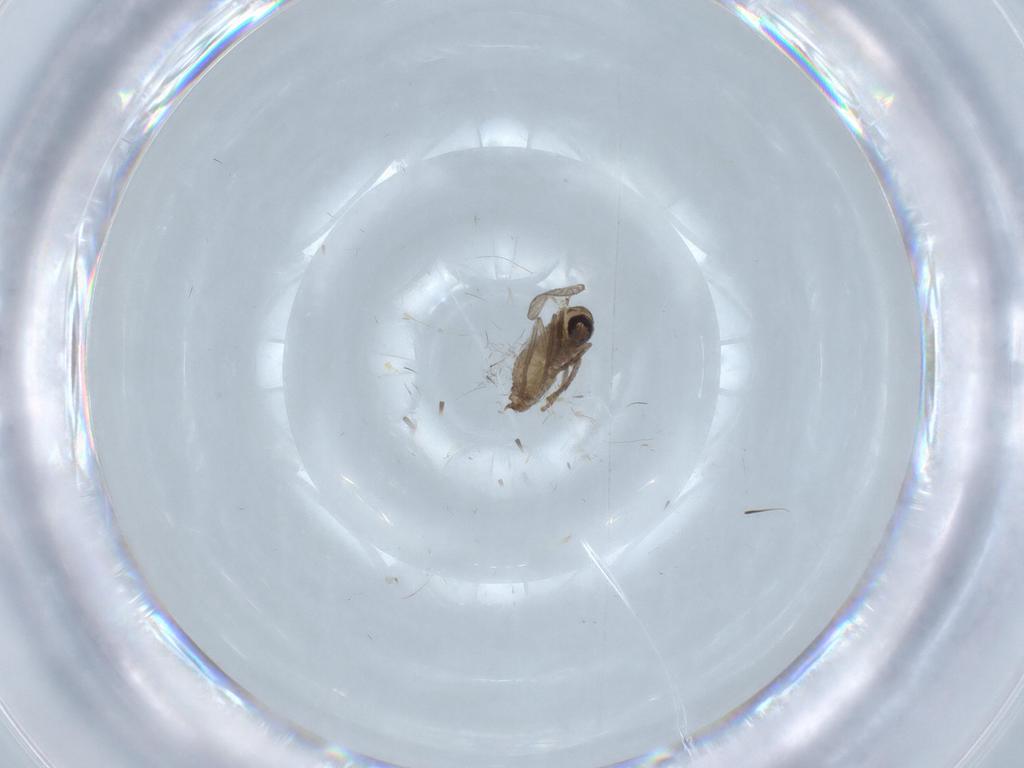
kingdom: Animalia
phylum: Arthropoda
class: Insecta
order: Diptera
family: Psychodidae
